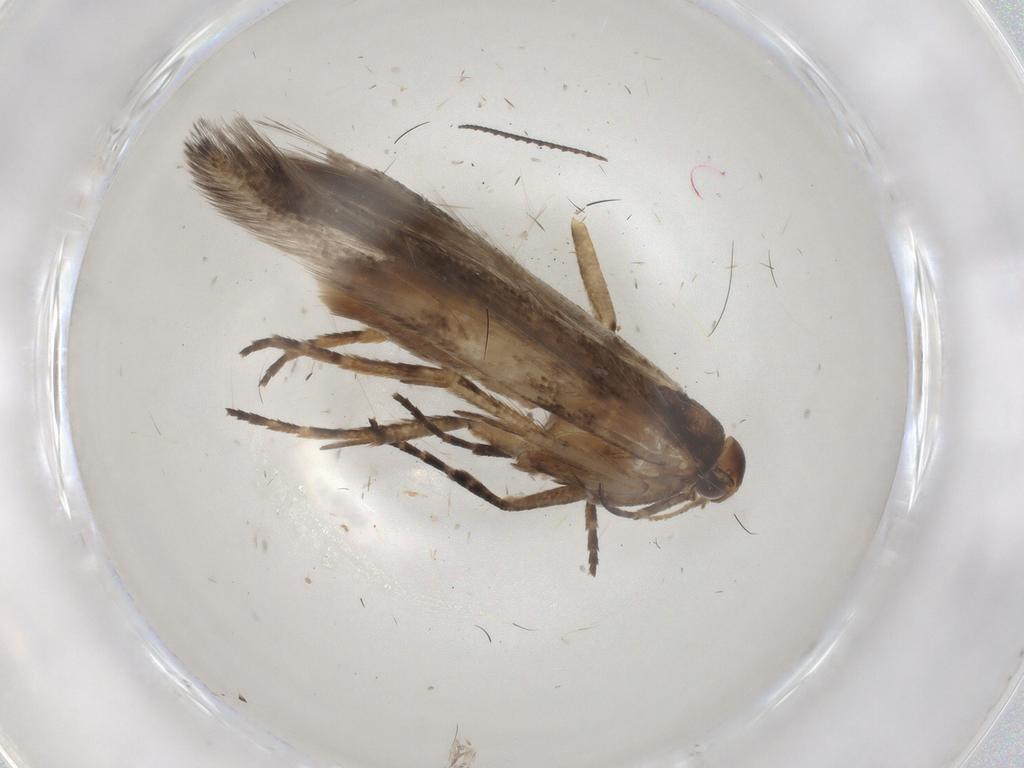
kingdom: Animalia
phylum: Arthropoda
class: Insecta
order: Lepidoptera
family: Gelechiidae
